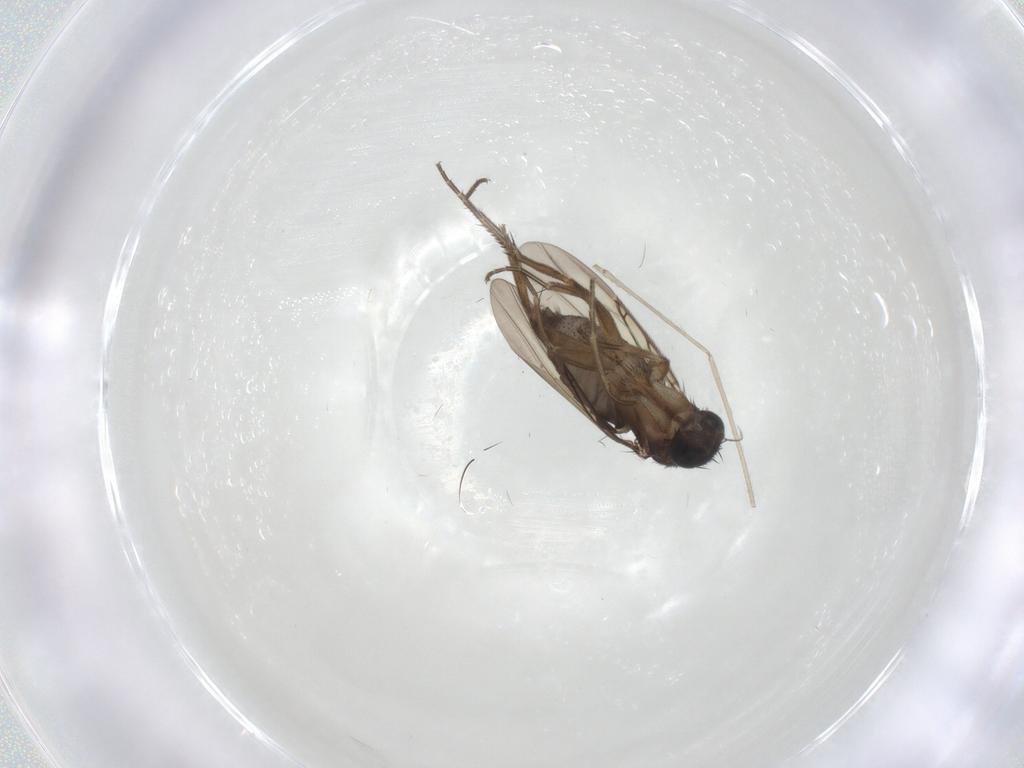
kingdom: Animalia
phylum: Arthropoda
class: Insecta
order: Diptera
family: Phoridae
